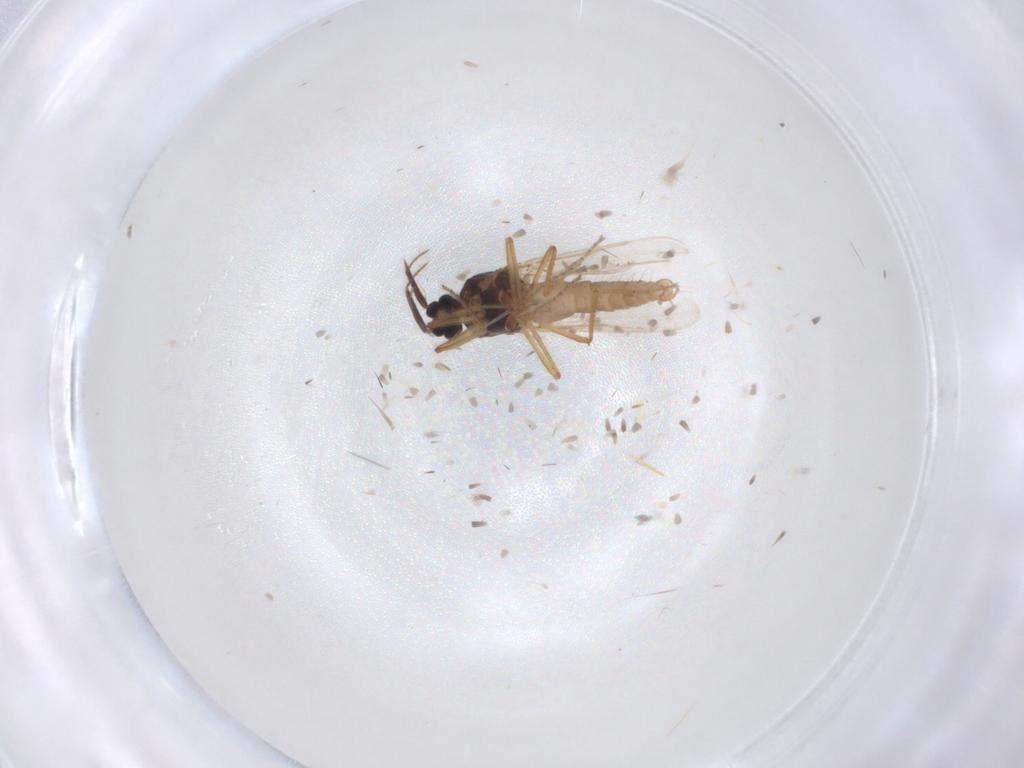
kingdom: Animalia
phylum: Arthropoda
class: Insecta
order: Diptera
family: Ceratopogonidae
